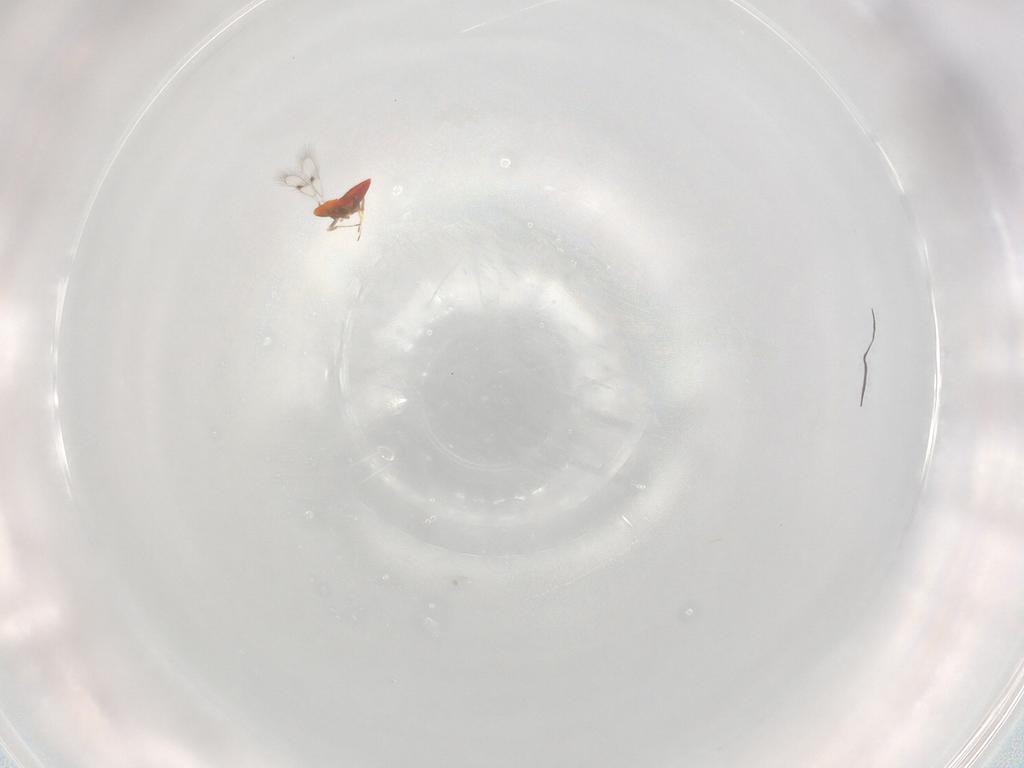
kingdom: Animalia
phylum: Arthropoda
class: Insecta
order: Hymenoptera
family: Trichogrammatidae
